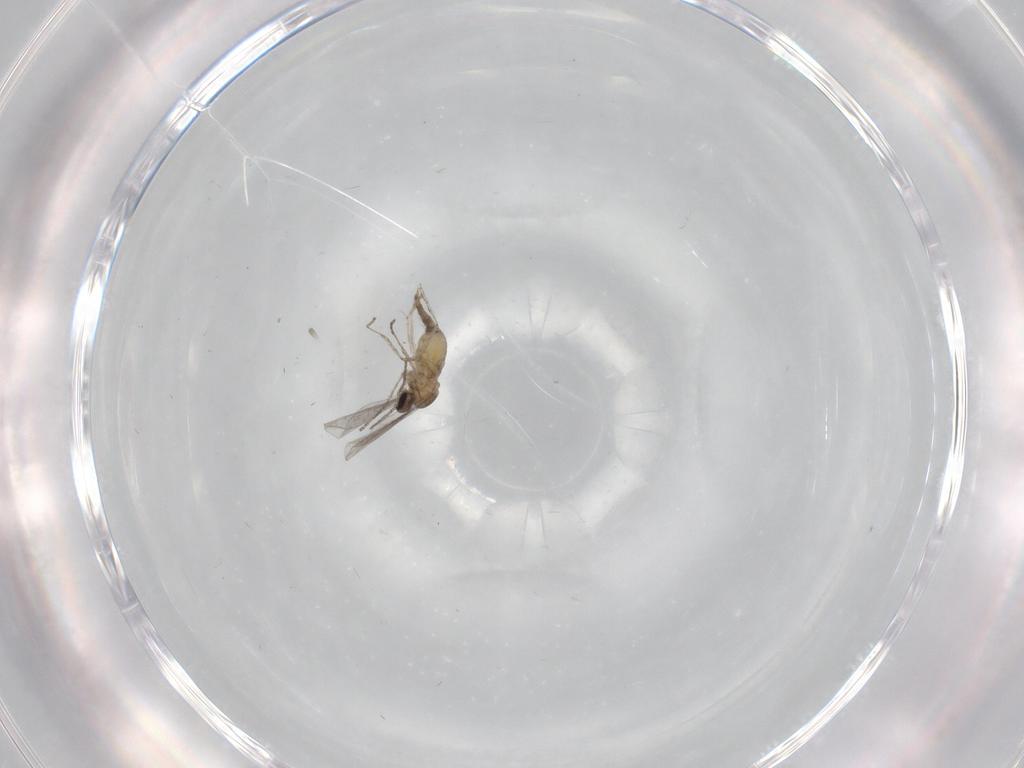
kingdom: Animalia
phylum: Arthropoda
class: Insecta
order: Diptera
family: Cecidomyiidae
